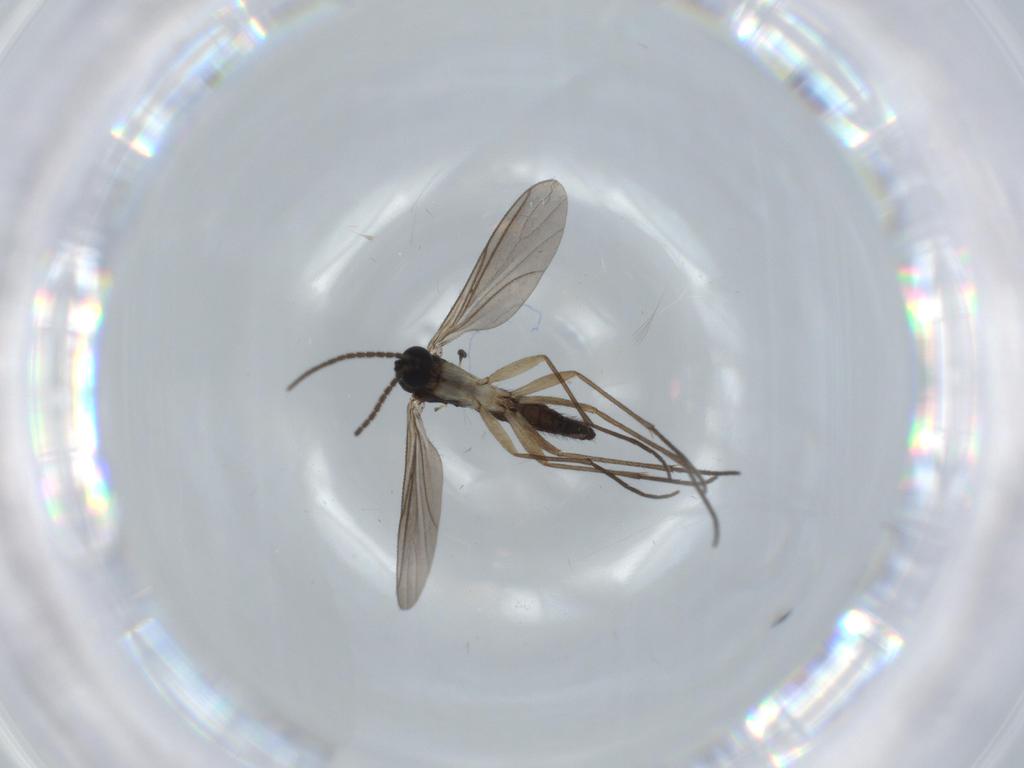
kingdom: Animalia
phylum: Arthropoda
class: Insecta
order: Diptera
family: Sciaridae
